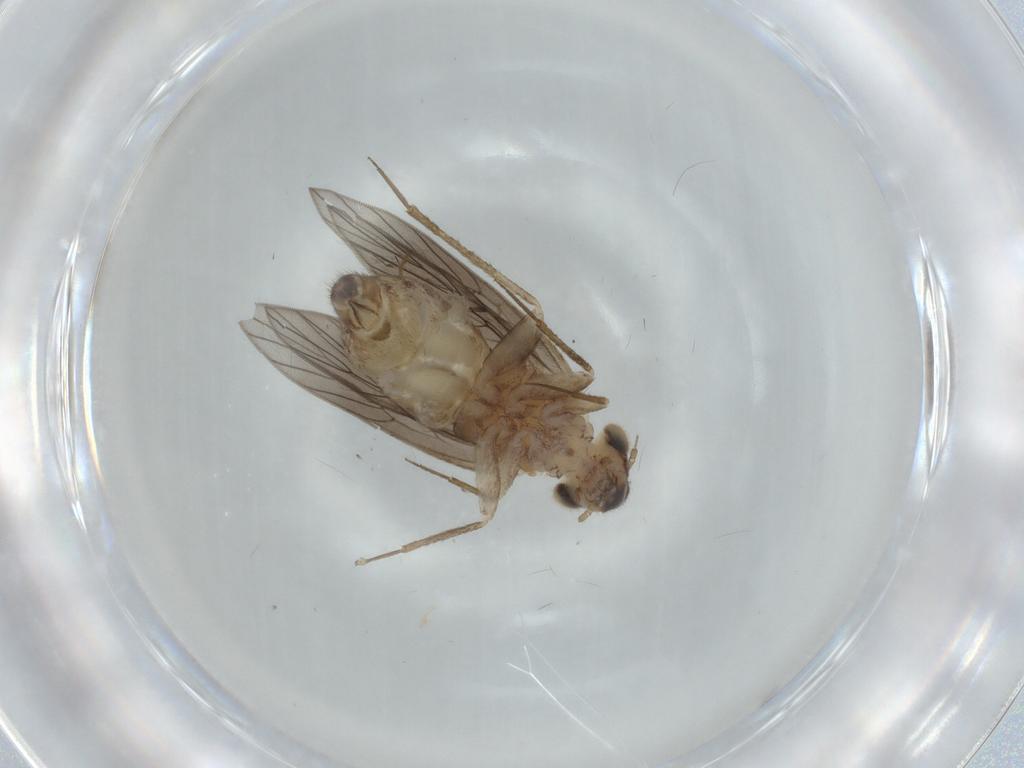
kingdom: Animalia
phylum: Arthropoda
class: Insecta
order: Psocodea
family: Lepidopsocidae
